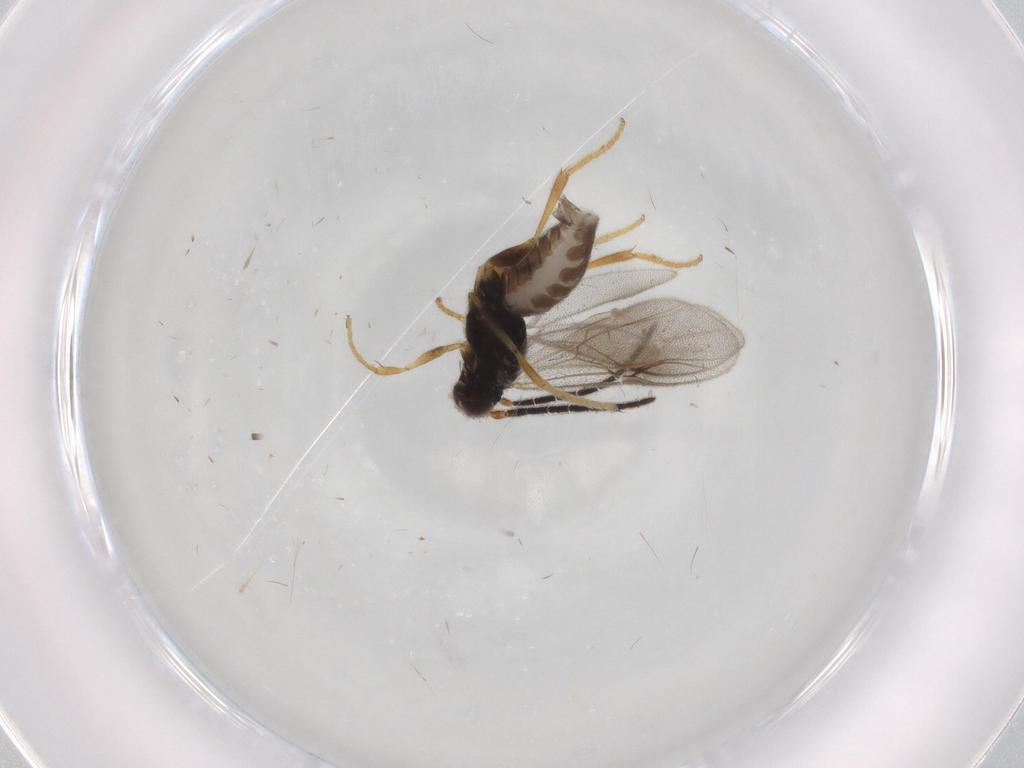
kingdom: Animalia
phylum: Arthropoda
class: Insecta
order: Hymenoptera
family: Dryinidae
